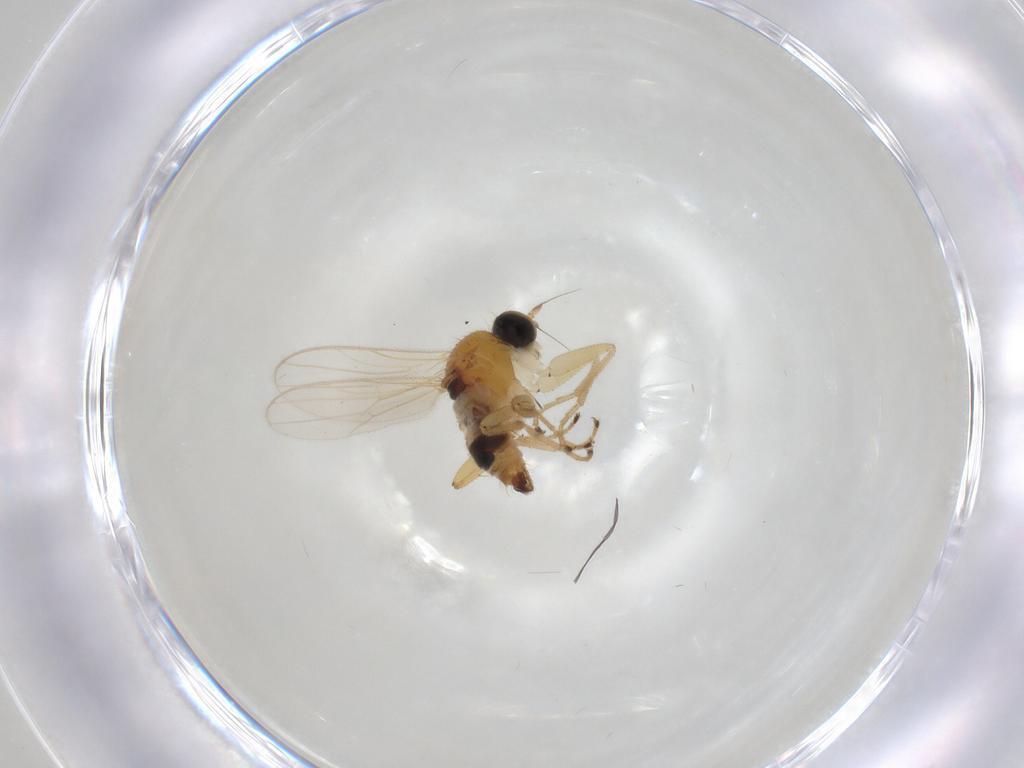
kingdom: Animalia
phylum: Arthropoda
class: Insecta
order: Diptera
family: Hybotidae
